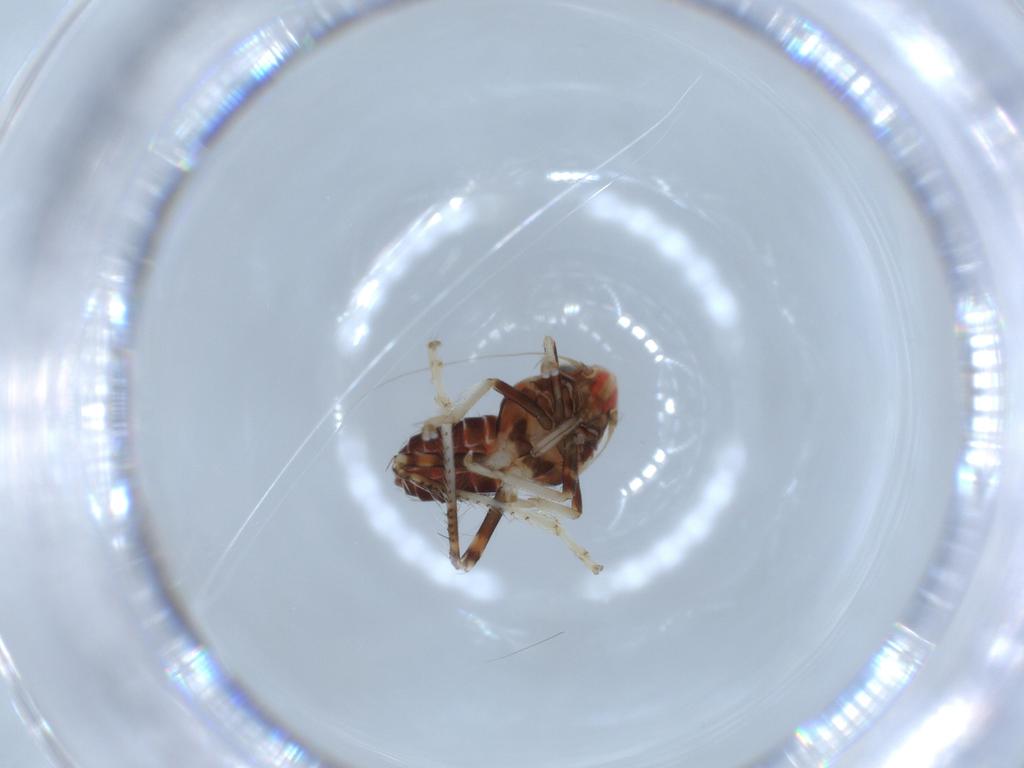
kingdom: Animalia
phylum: Arthropoda
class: Insecta
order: Hemiptera
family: Cicadellidae
